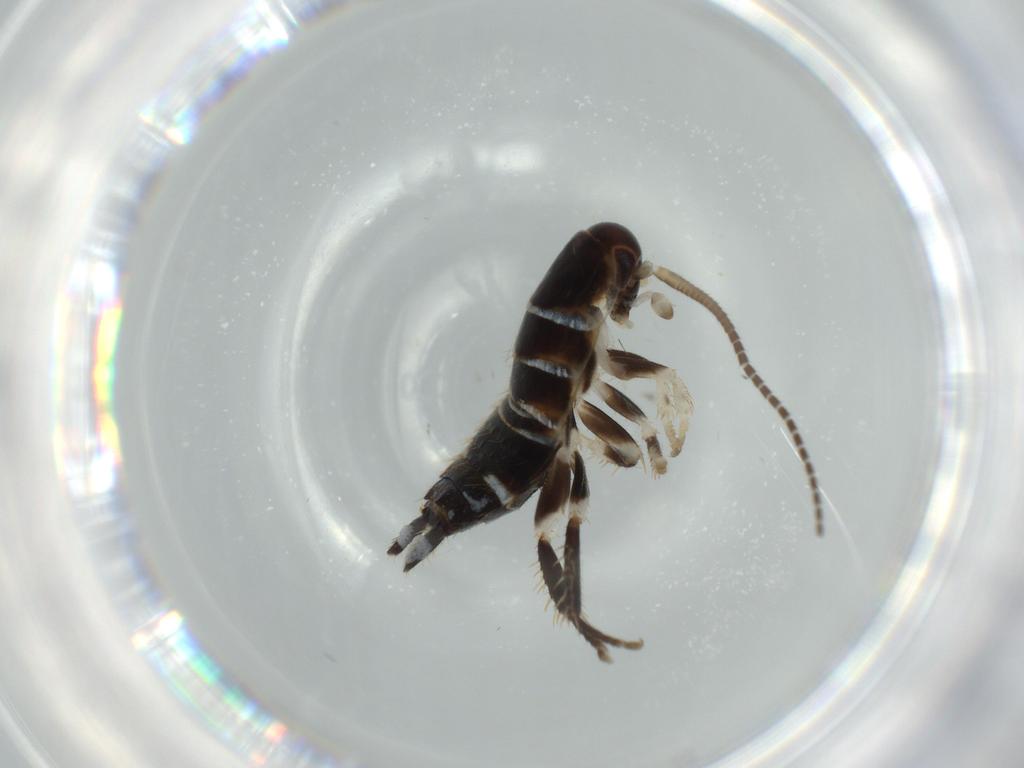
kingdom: Animalia
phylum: Arthropoda
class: Insecta
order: Blattodea
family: Ectobiidae
